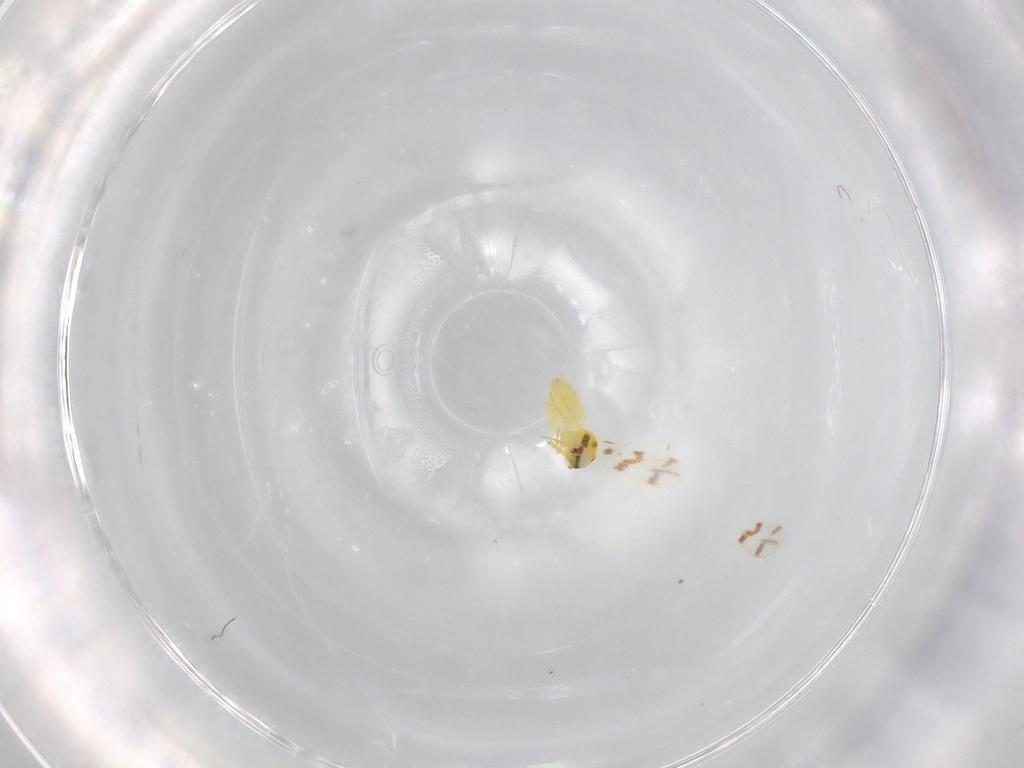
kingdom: Animalia
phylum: Arthropoda
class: Insecta
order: Hemiptera
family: Aleyrodidae
